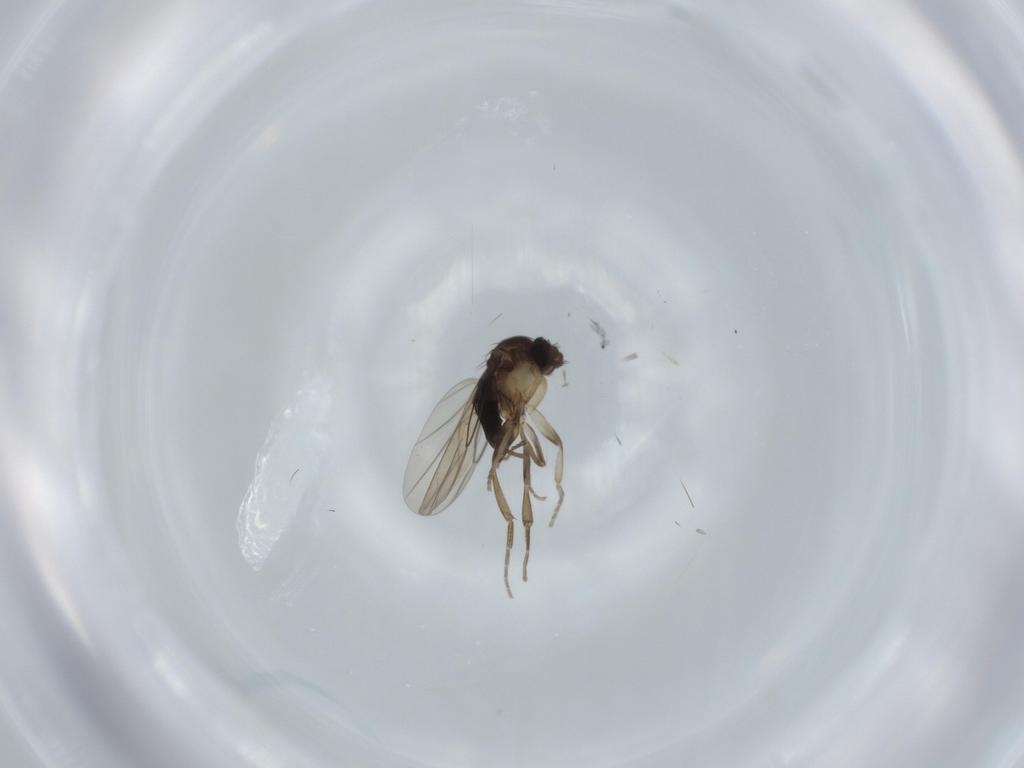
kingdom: Animalia
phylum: Arthropoda
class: Insecta
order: Diptera
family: Phoridae
